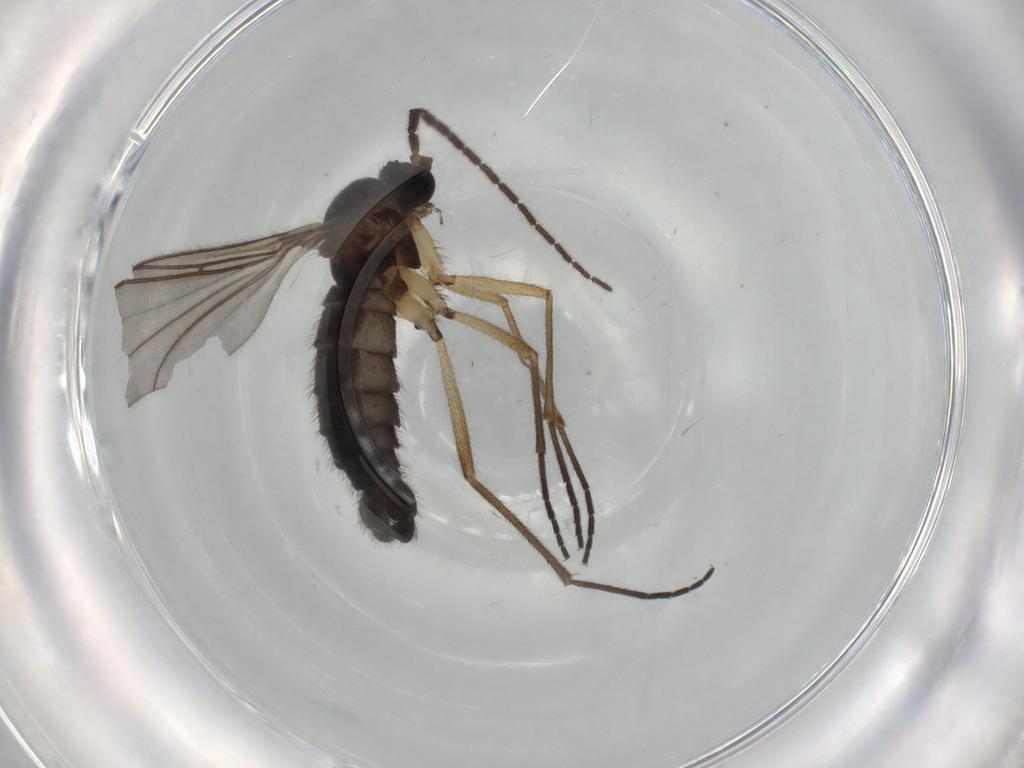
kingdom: Animalia
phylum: Arthropoda
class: Insecta
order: Diptera
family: Sciaridae
